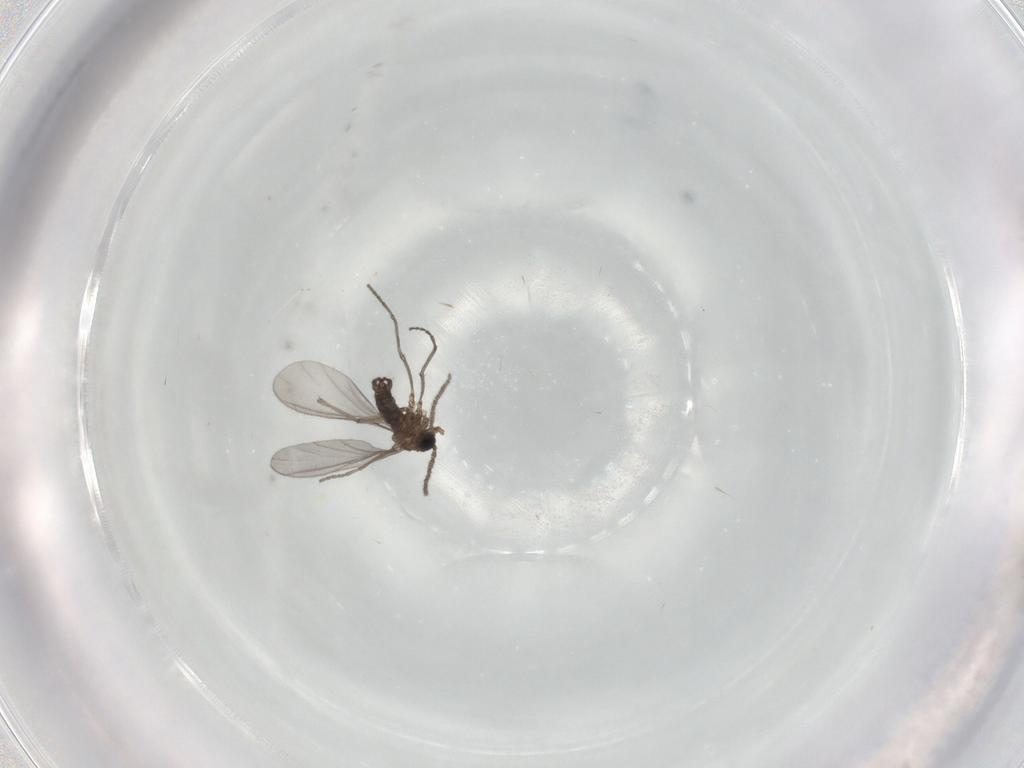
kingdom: Animalia
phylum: Arthropoda
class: Insecta
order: Diptera
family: Sciaridae
